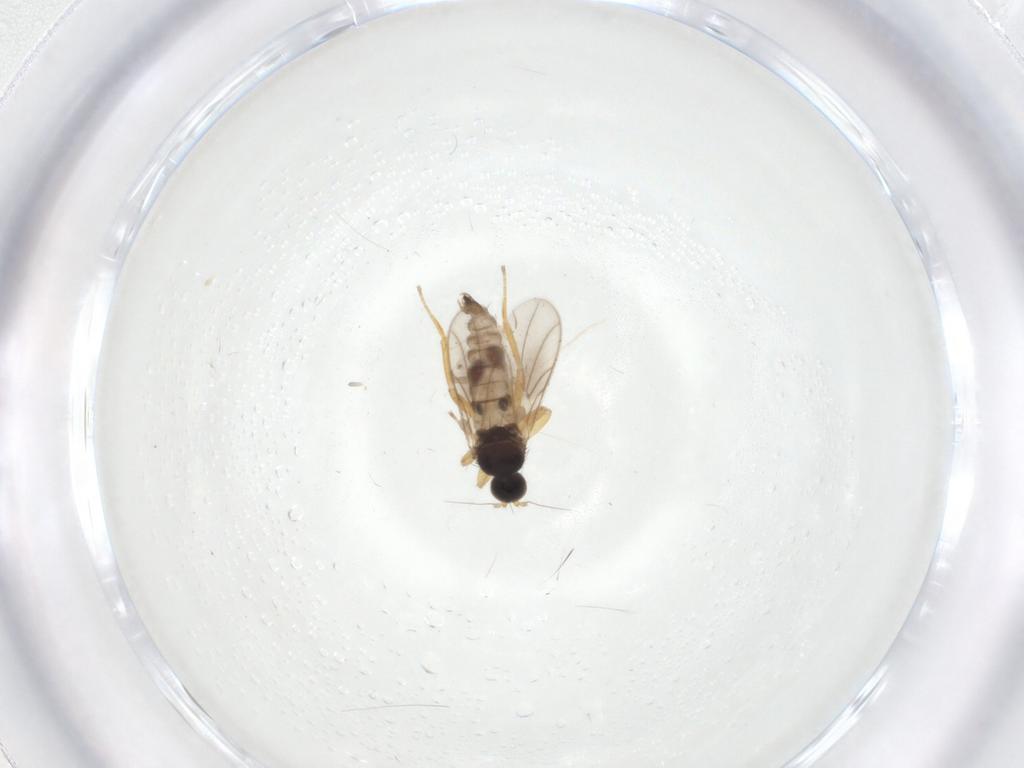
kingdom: Animalia
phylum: Arthropoda
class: Insecta
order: Diptera
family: Hybotidae
